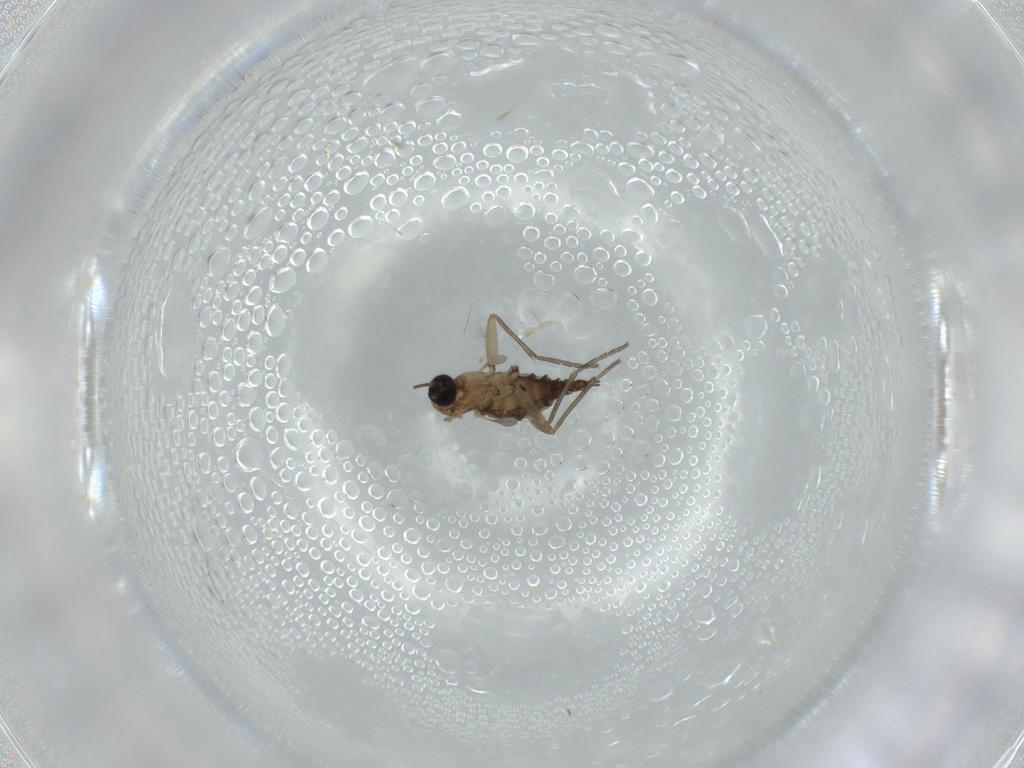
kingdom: Animalia
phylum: Arthropoda
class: Insecta
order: Diptera
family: Sciaridae
